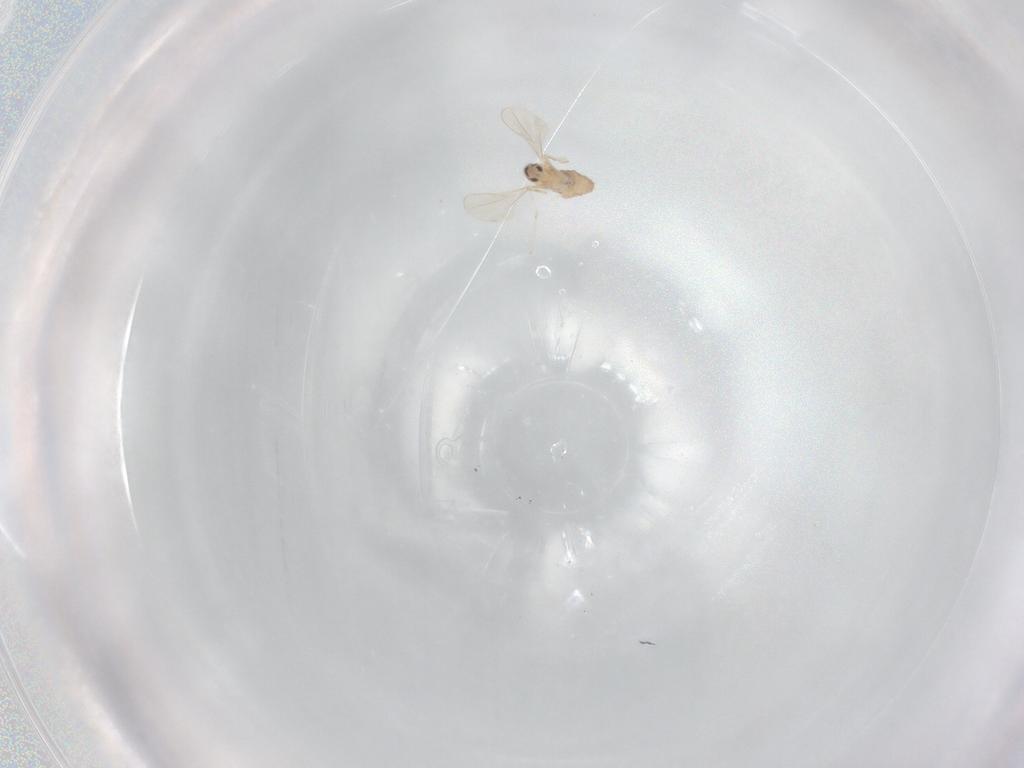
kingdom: Animalia
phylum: Arthropoda
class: Insecta
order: Diptera
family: Cecidomyiidae
